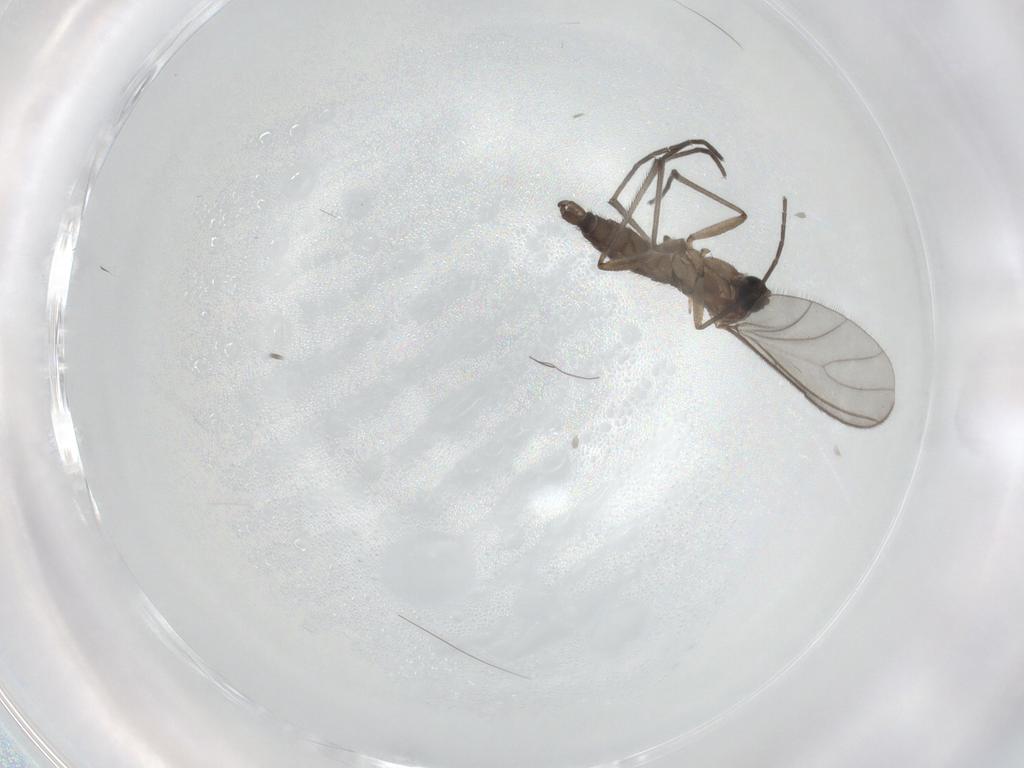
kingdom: Animalia
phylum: Arthropoda
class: Insecta
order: Diptera
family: Sciaridae
